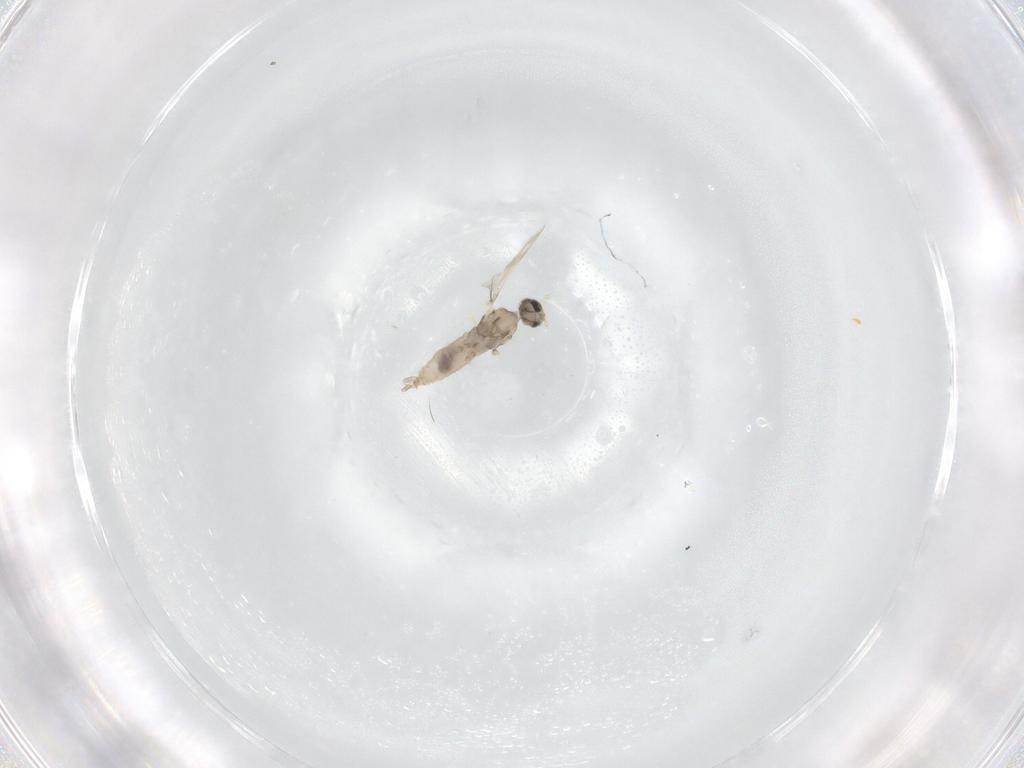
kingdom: Animalia
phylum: Arthropoda
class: Insecta
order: Diptera
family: Cecidomyiidae
